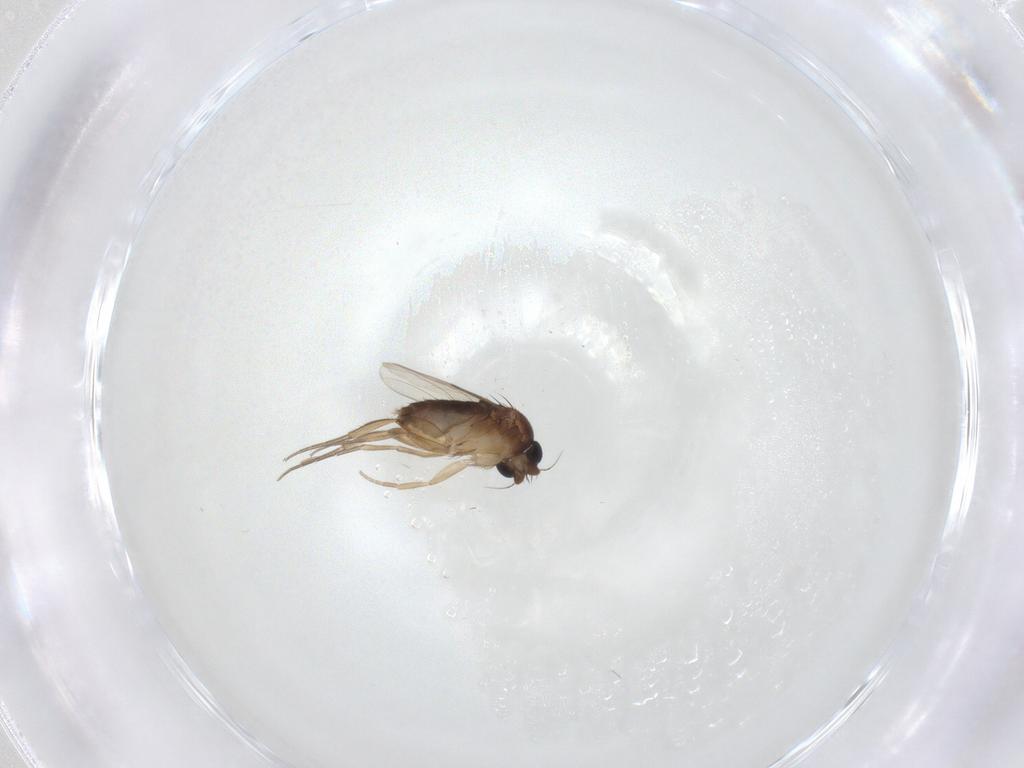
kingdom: Animalia
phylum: Arthropoda
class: Insecta
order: Diptera
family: Phoridae
